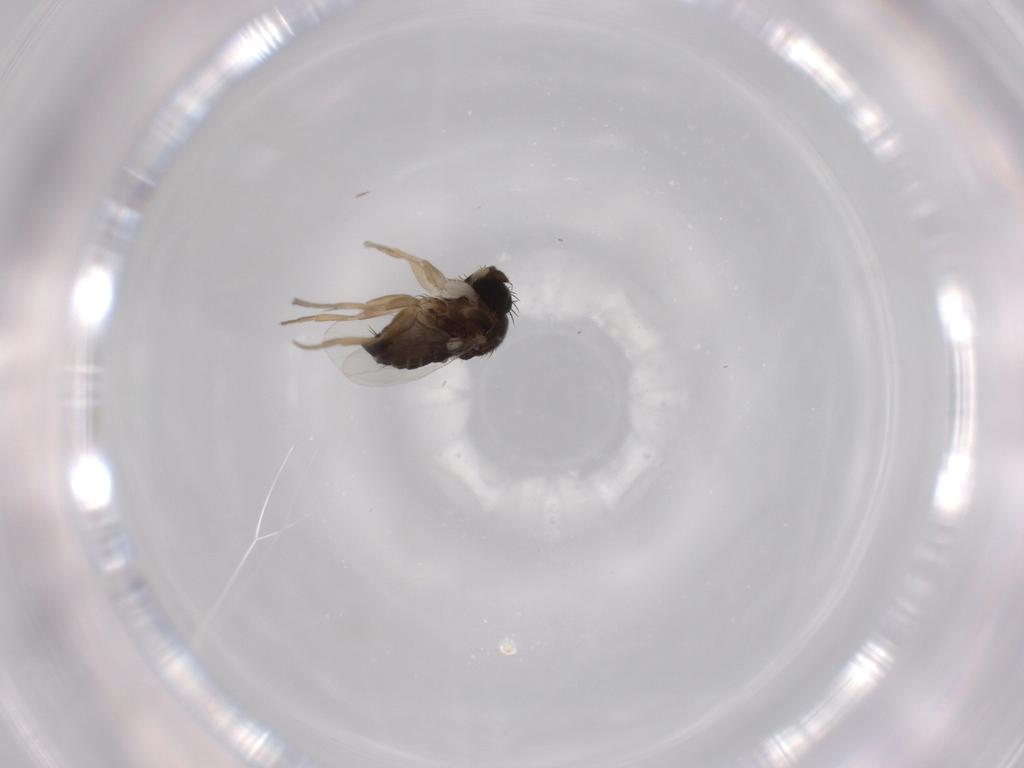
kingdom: Animalia
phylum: Arthropoda
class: Insecta
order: Diptera
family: Phoridae
